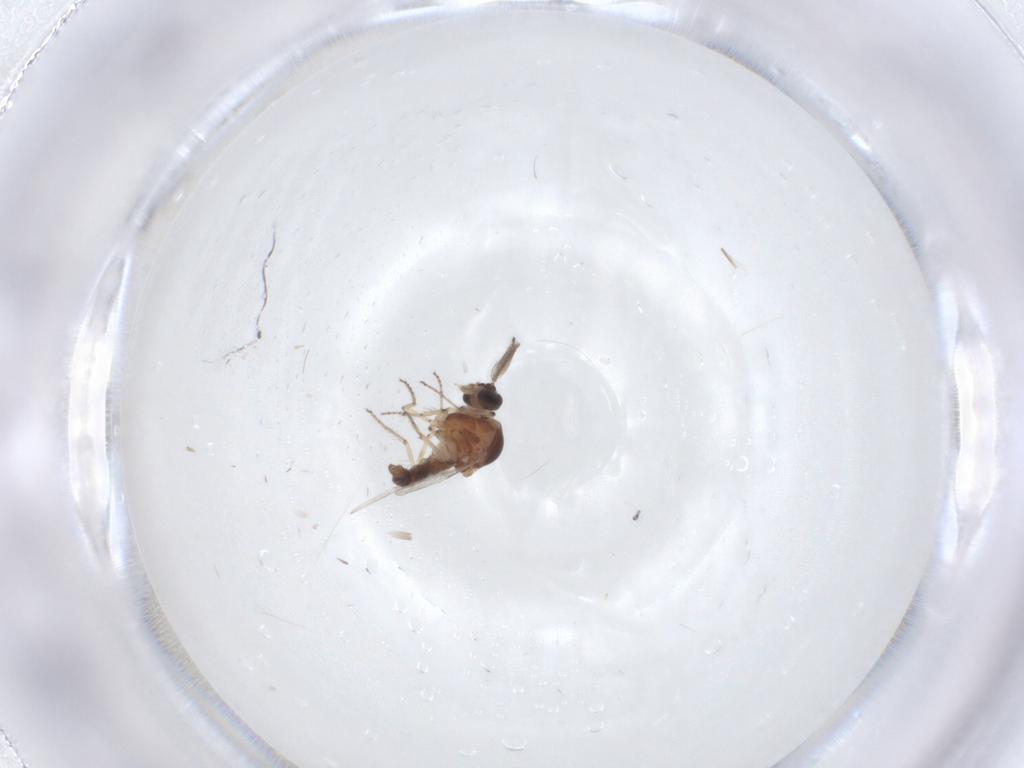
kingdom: Animalia
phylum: Arthropoda
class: Insecta
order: Diptera
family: Ceratopogonidae
